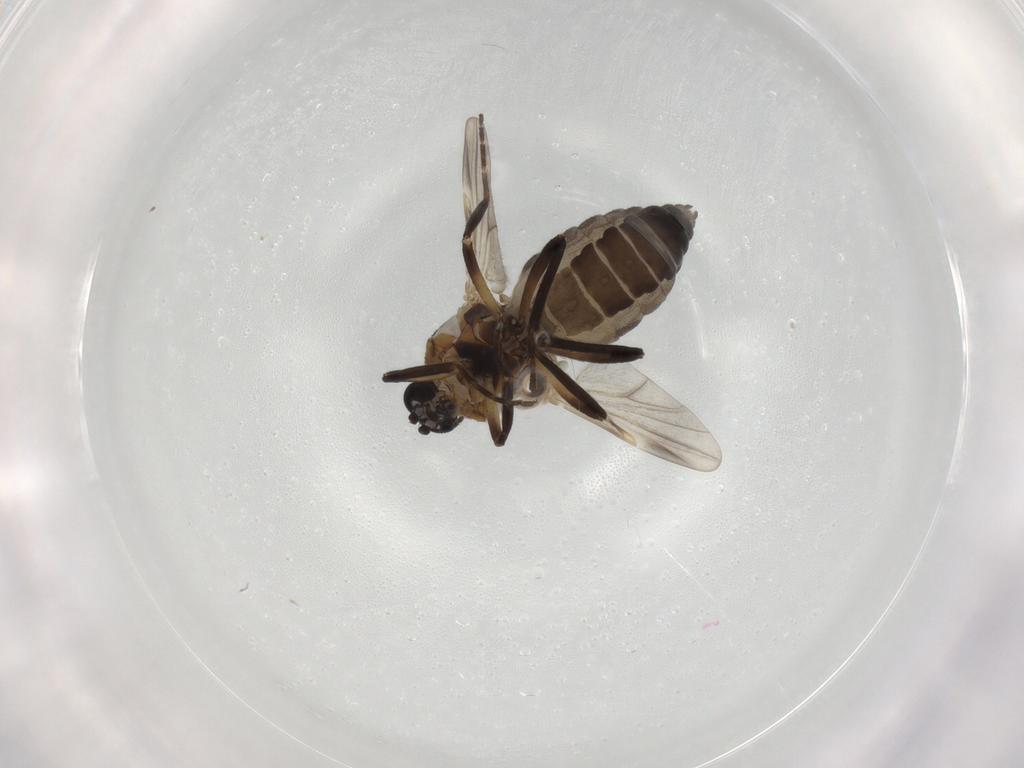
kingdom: Animalia
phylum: Arthropoda
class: Insecta
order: Diptera
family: Ceratopogonidae
